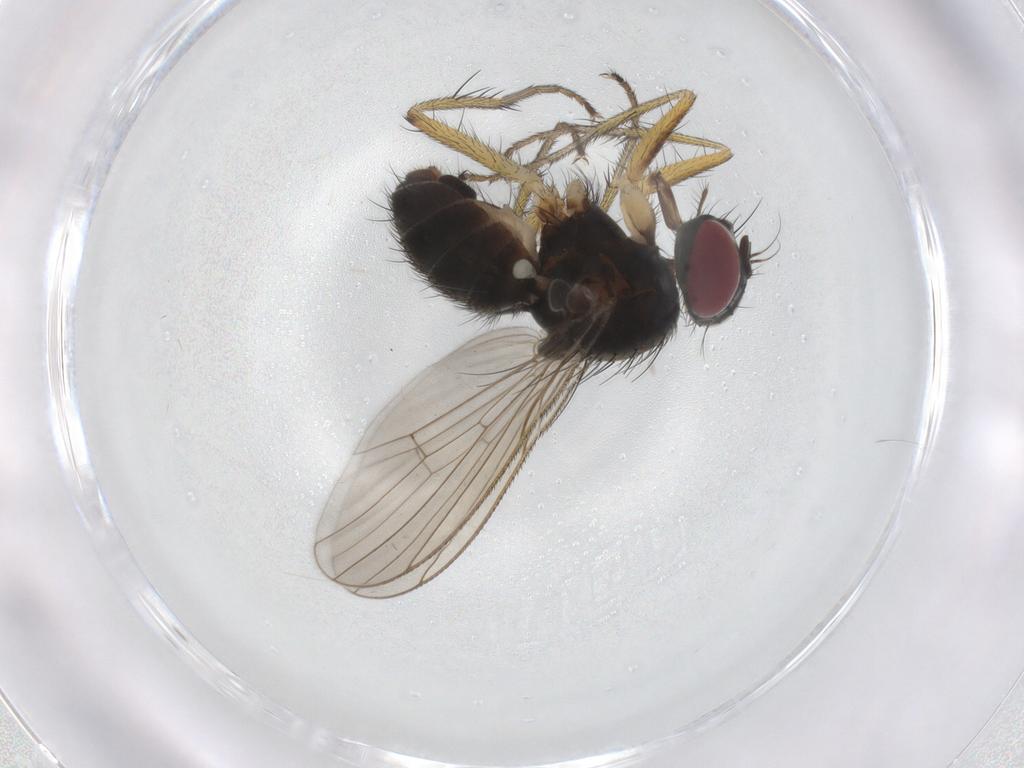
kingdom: Animalia
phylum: Arthropoda
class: Insecta
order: Diptera
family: Muscidae
